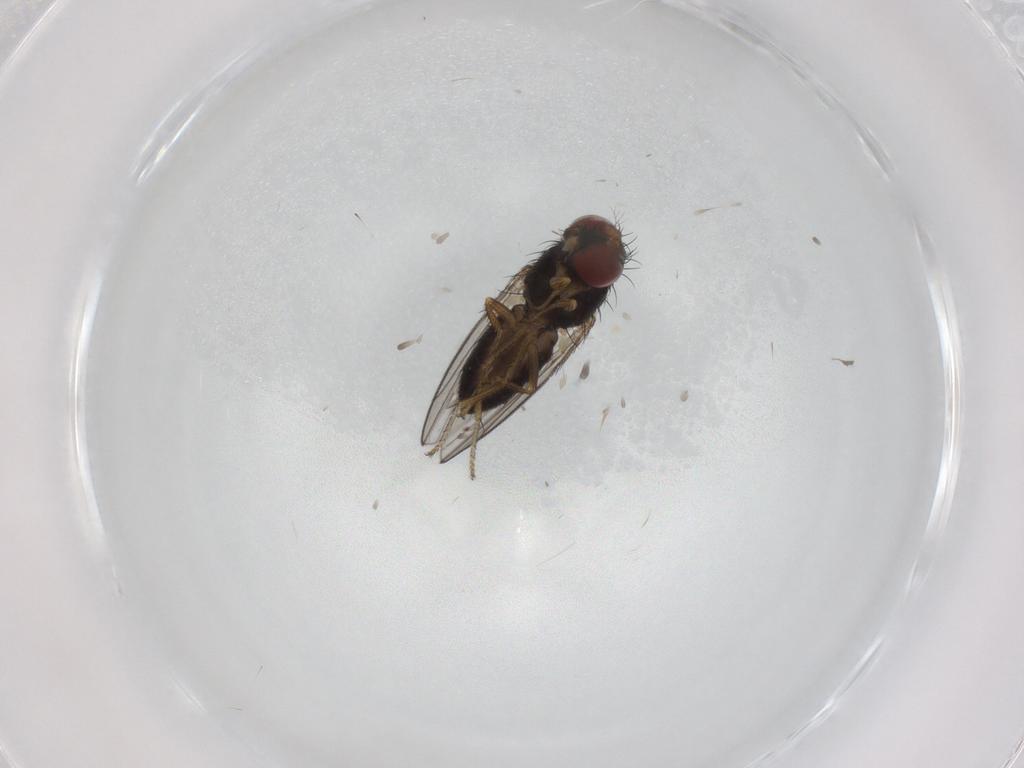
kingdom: Animalia
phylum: Arthropoda
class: Insecta
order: Diptera
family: Ephydridae
